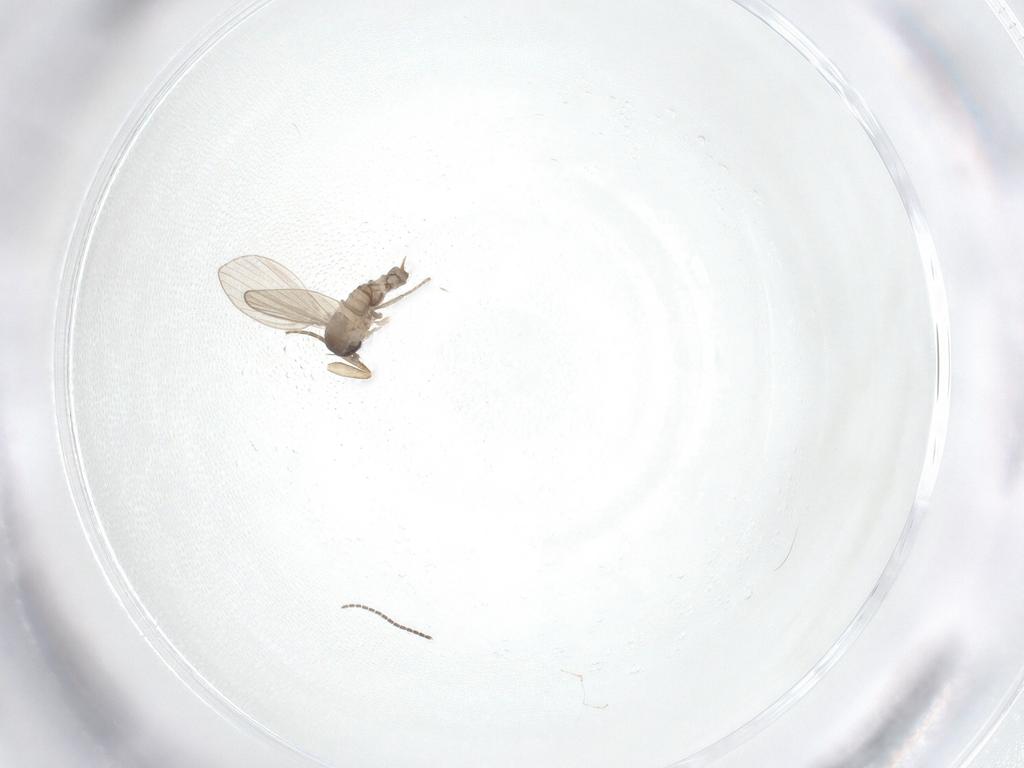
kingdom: Animalia
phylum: Arthropoda
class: Insecta
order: Diptera
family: Psychodidae
